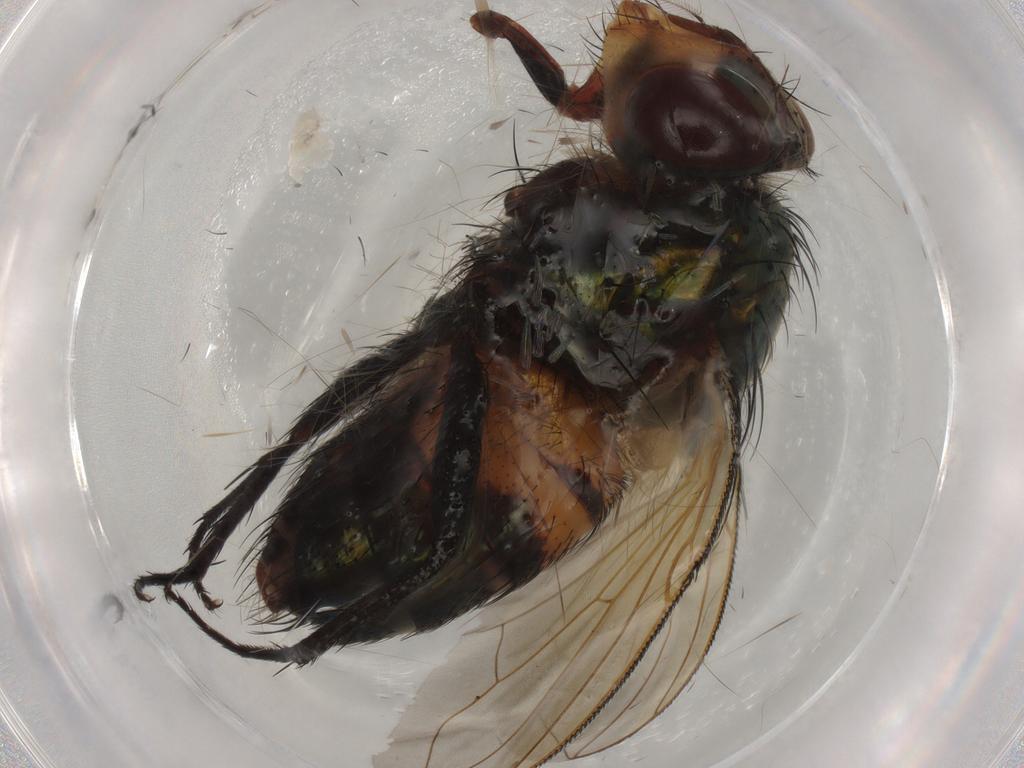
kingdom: Animalia
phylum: Arthropoda
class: Insecta
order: Diptera
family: Calliphoridae
